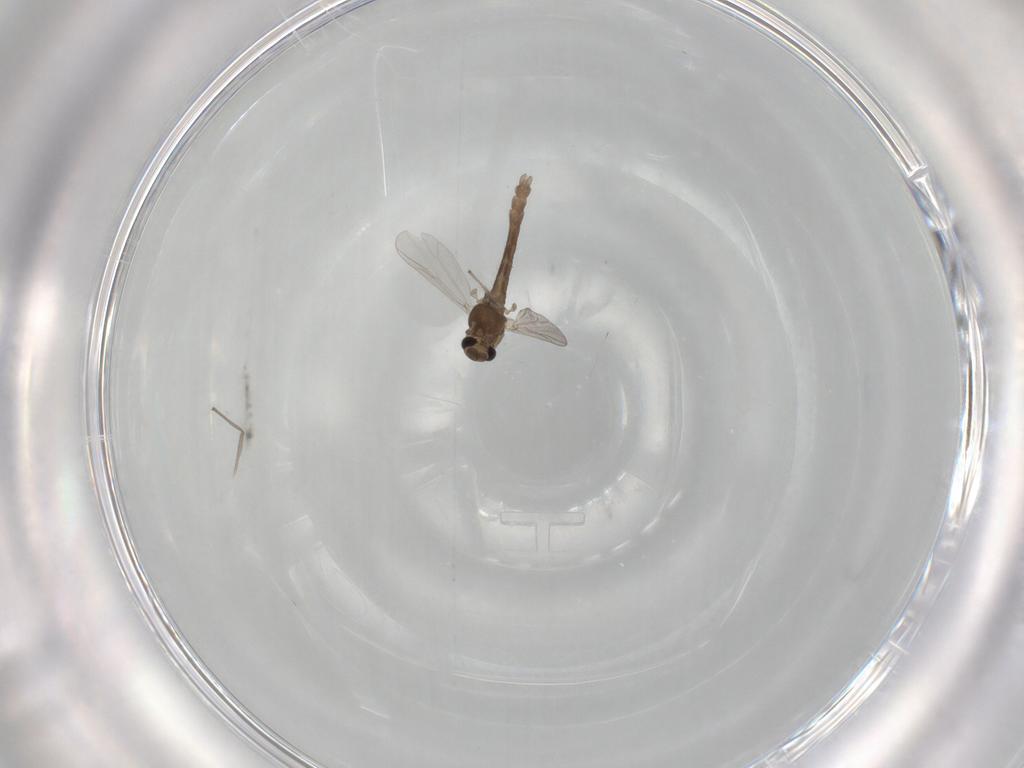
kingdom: Animalia
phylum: Arthropoda
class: Insecta
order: Diptera
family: Chironomidae
